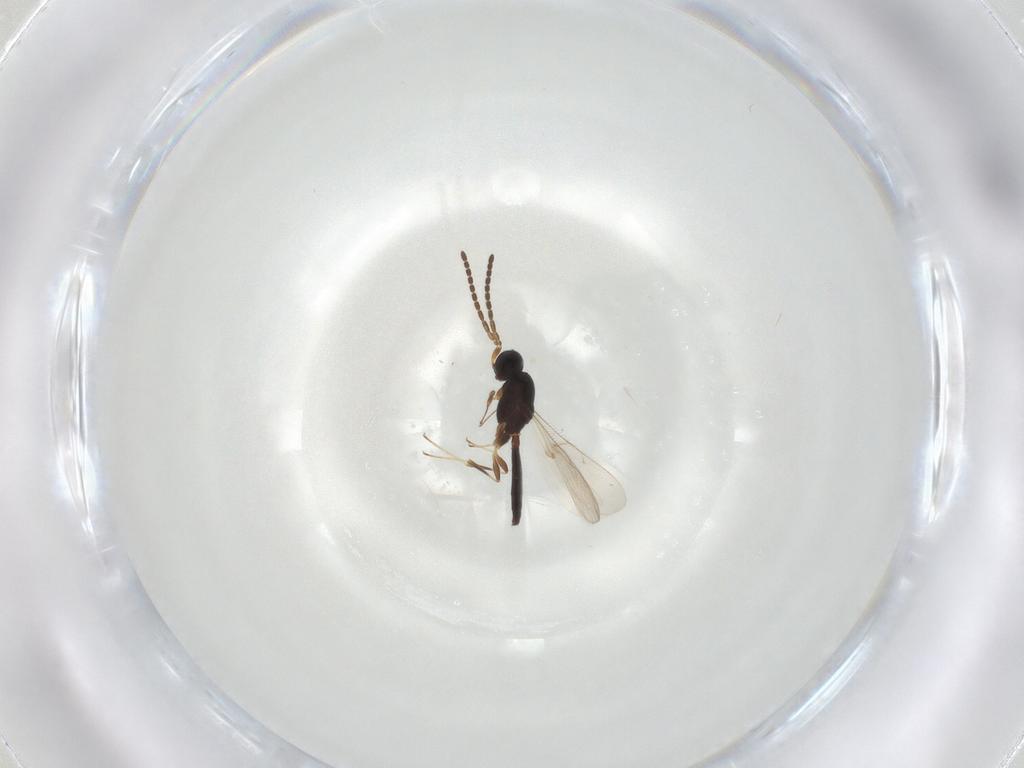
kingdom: Animalia
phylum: Arthropoda
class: Insecta
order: Hymenoptera
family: Scelionidae
